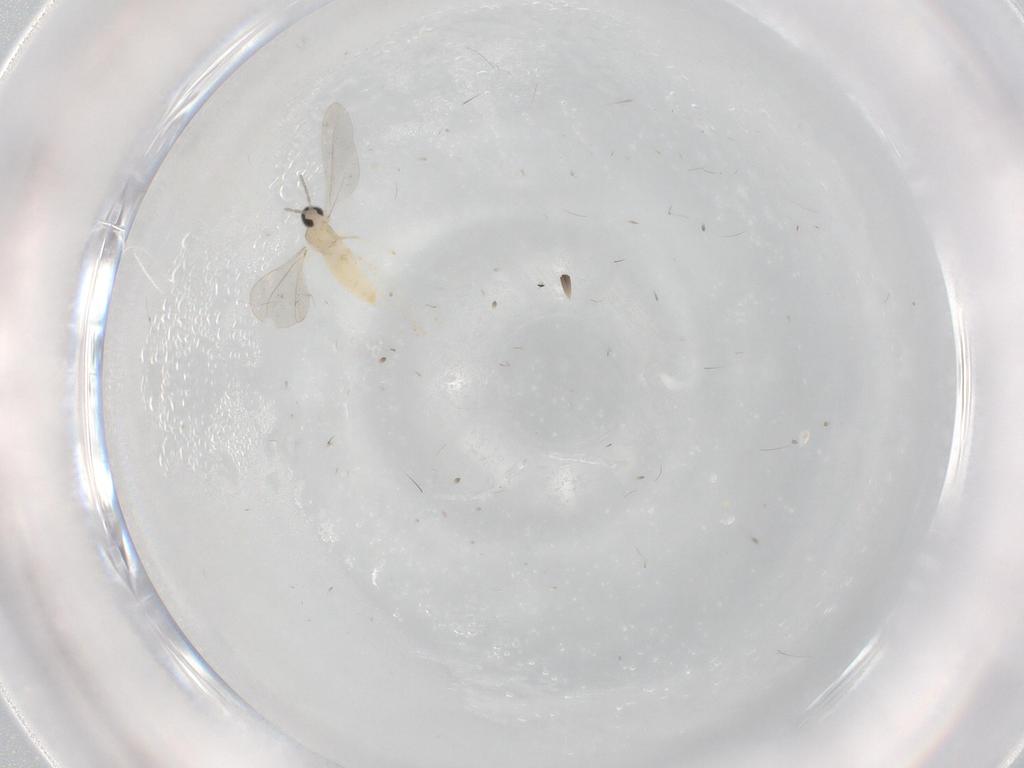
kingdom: Animalia
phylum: Arthropoda
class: Insecta
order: Diptera
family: Cecidomyiidae
